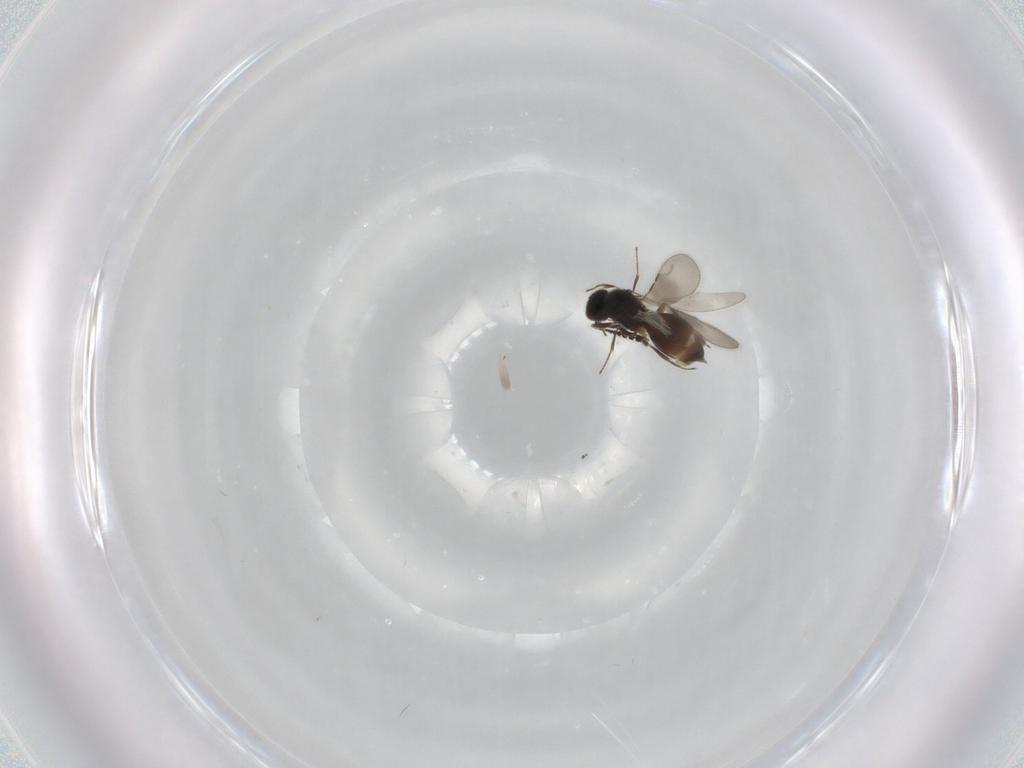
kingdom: Animalia
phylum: Arthropoda
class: Insecta
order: Hymenoptera
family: Ceraphronidae
